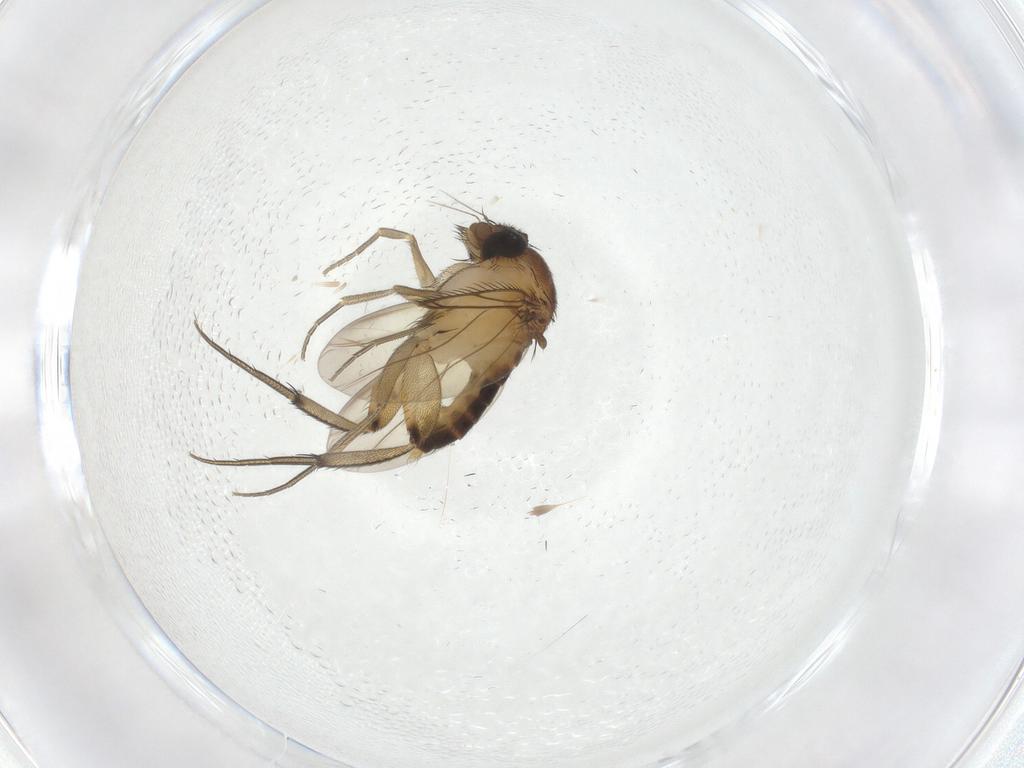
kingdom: Animalia
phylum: Arthropoda
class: Insecta
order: Diptera
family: Phoridae
